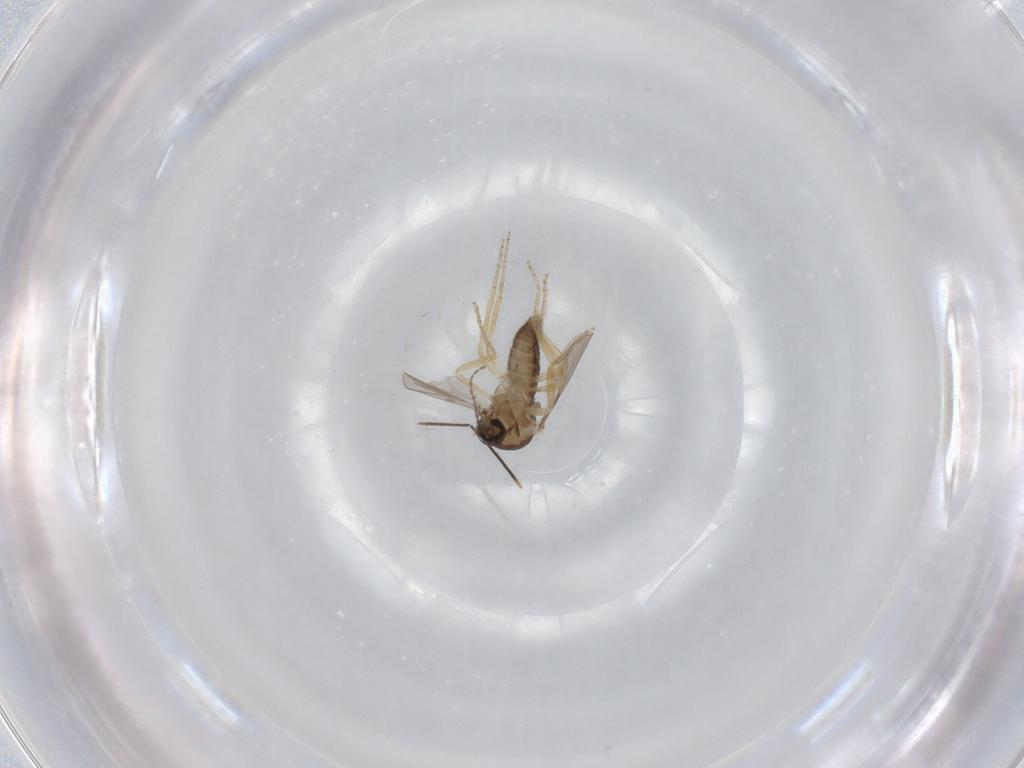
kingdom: Animalia
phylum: Arthropoda
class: Insecta
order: Diptera
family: Ceratopogonidae
